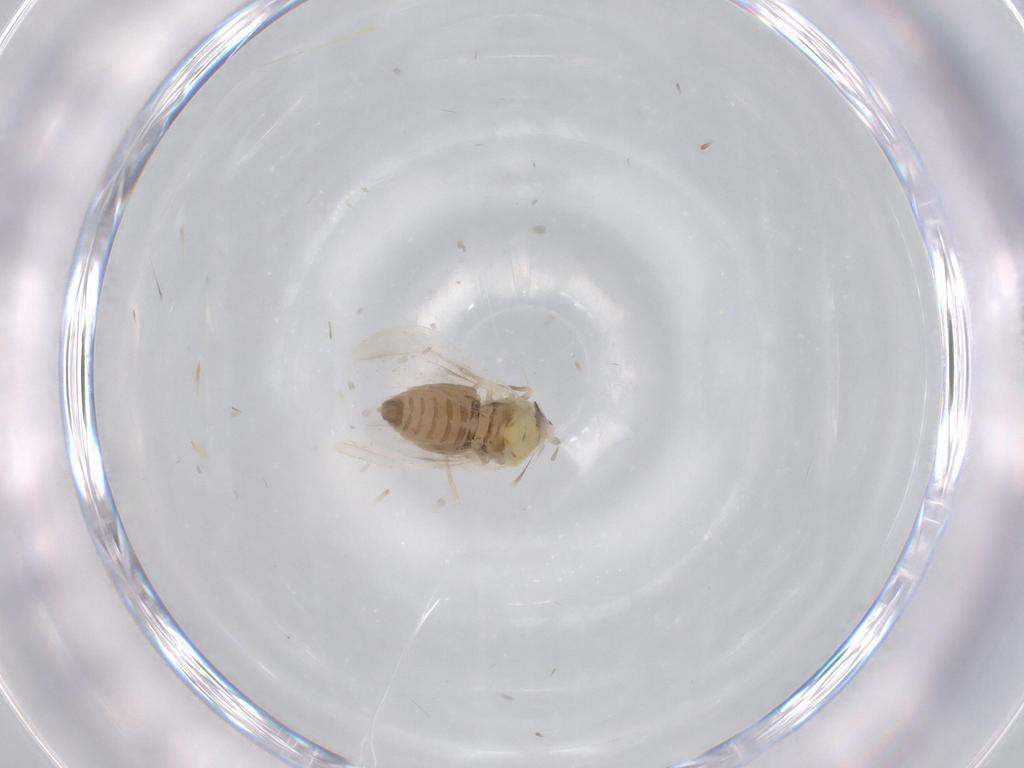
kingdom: Animalia
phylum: Arthropoda
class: Insecta
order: Hemiptera
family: Aleyrodidae
